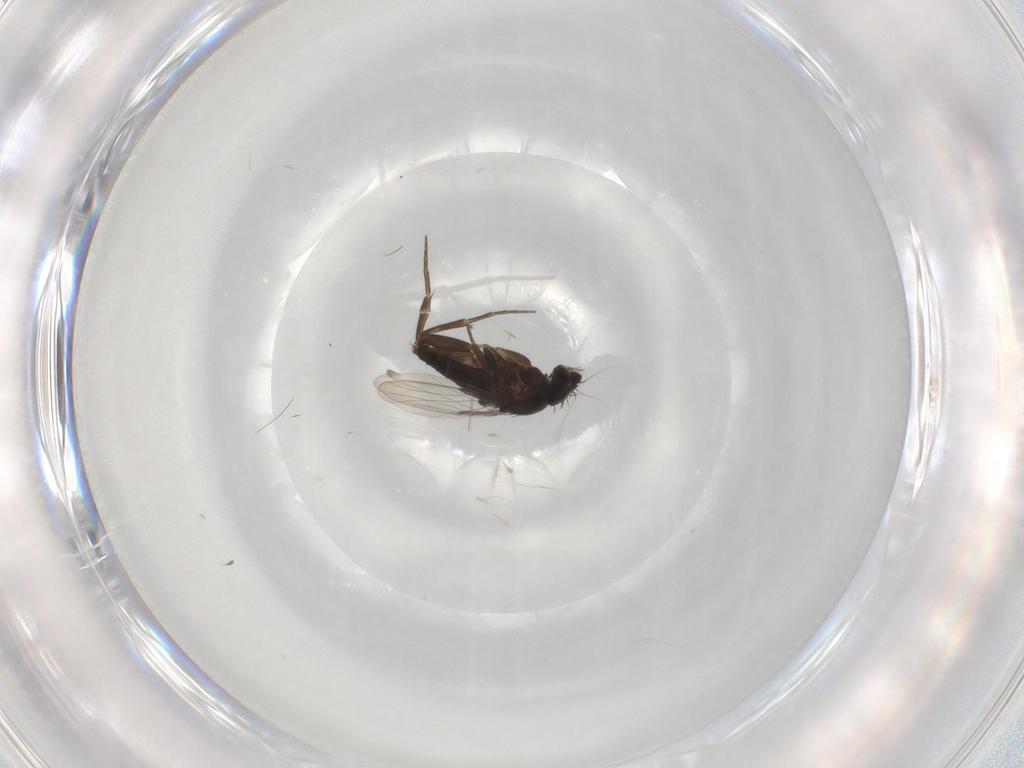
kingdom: Animalia
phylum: Arthropoda
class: Insecta
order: Diptera
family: Phoridae
